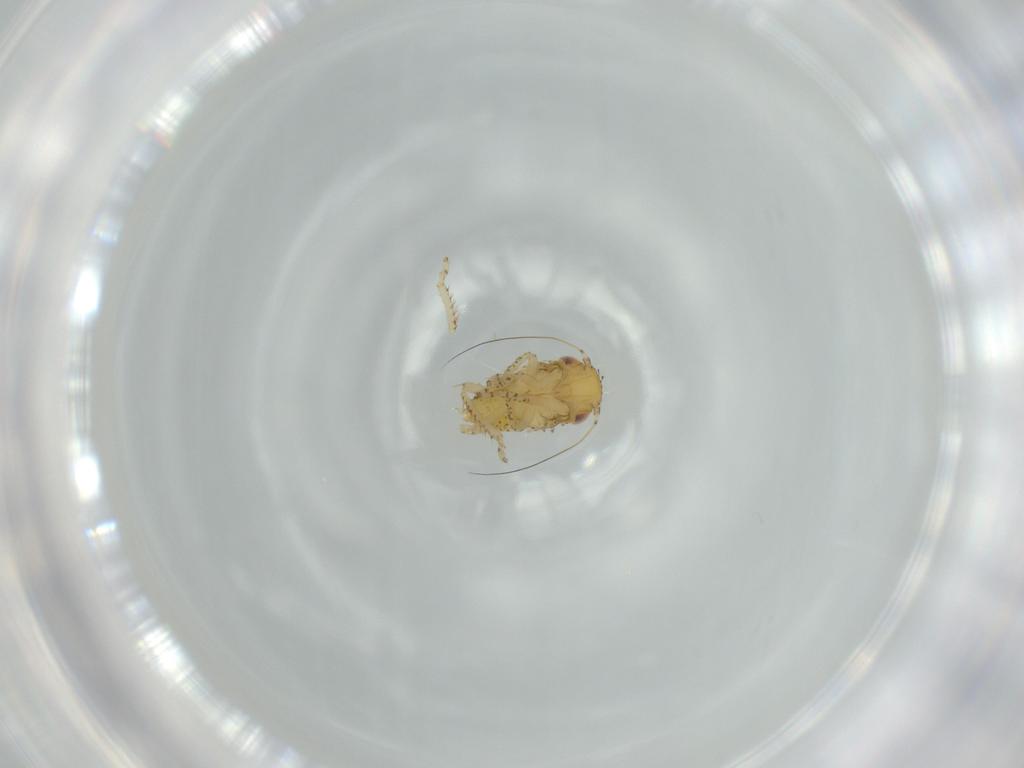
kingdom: Animalia
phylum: Arthropoda
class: Insecta
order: Hemiptera
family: Cicadellidae
